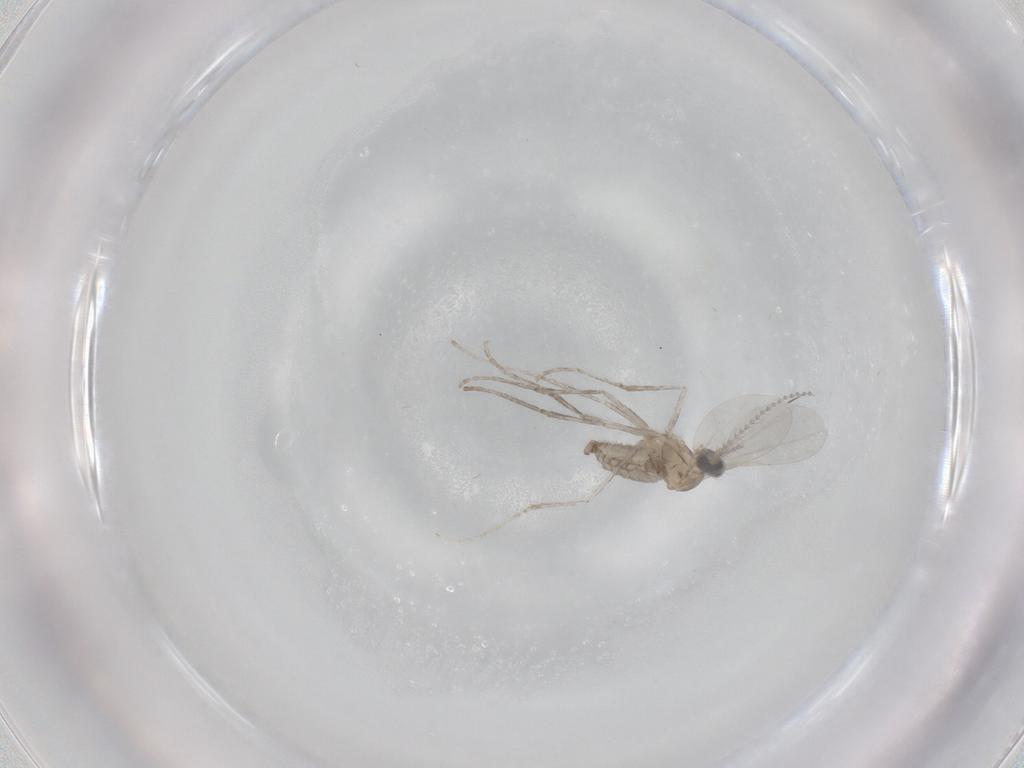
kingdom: Animalia
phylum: Arthropoda
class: Insecta
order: Diptera
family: Cecidomyiidae
